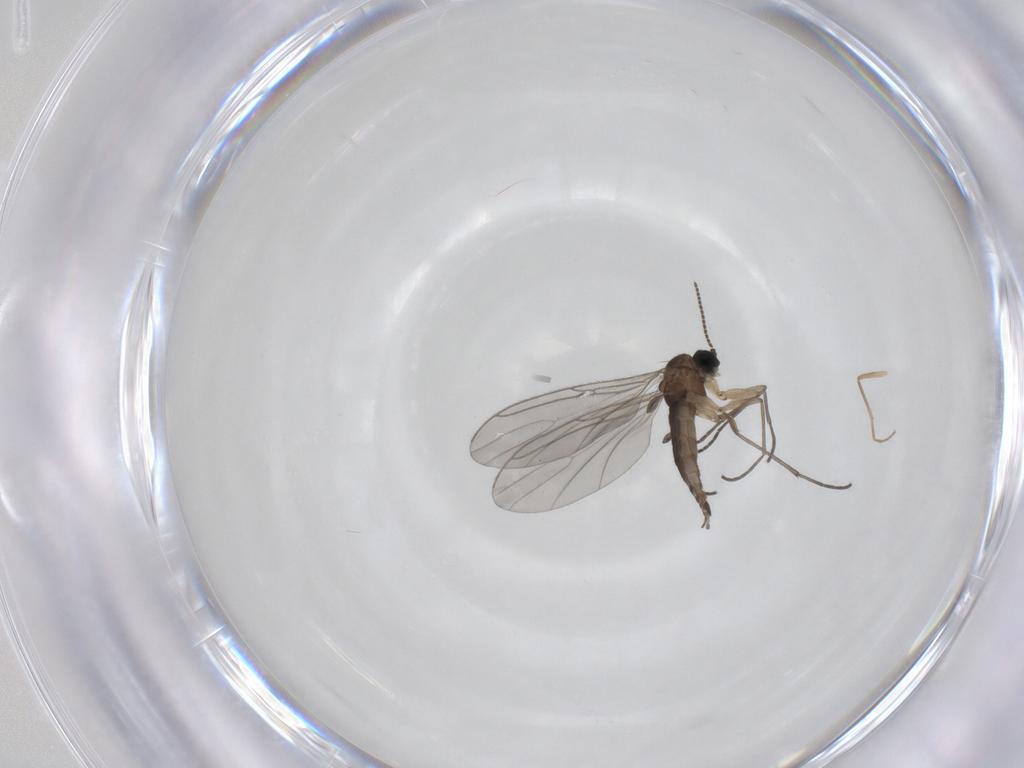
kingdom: Animalia
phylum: Arthropoda
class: Insecta
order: Diptera
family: Sciaridae
